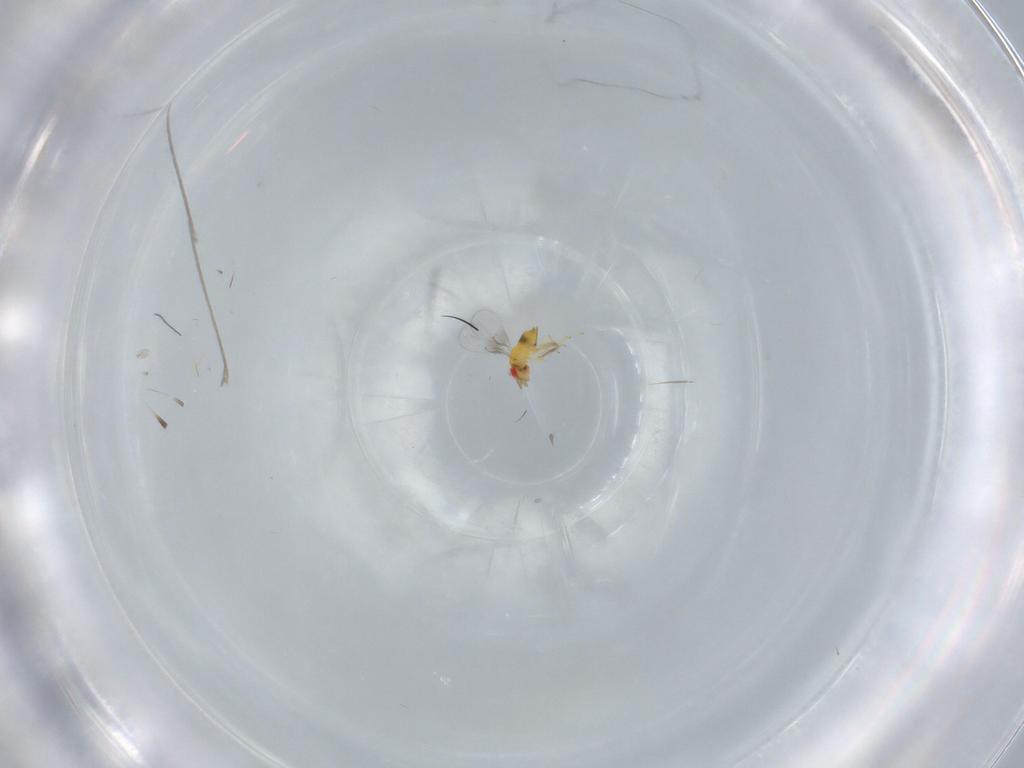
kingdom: Animalia
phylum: Arthropoda
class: Insecta
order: Hymenoptera
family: Trichogrammatidae
